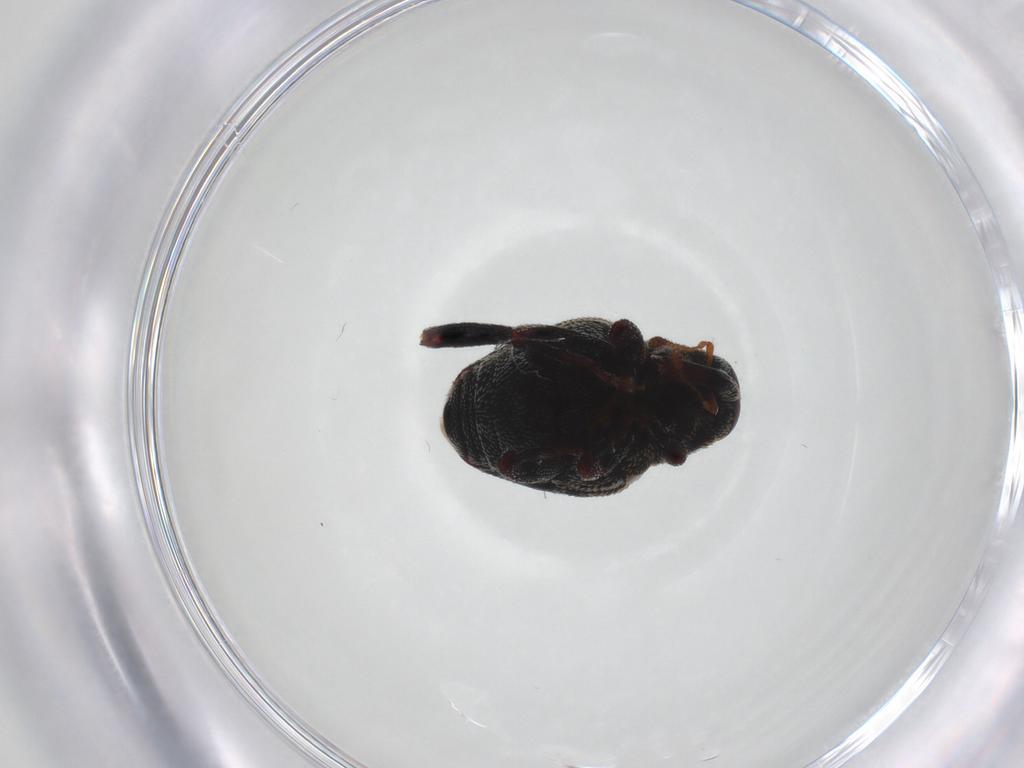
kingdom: Animalia
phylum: Arthropoda
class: Insecta
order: Coleoptera
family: Curculionidae
